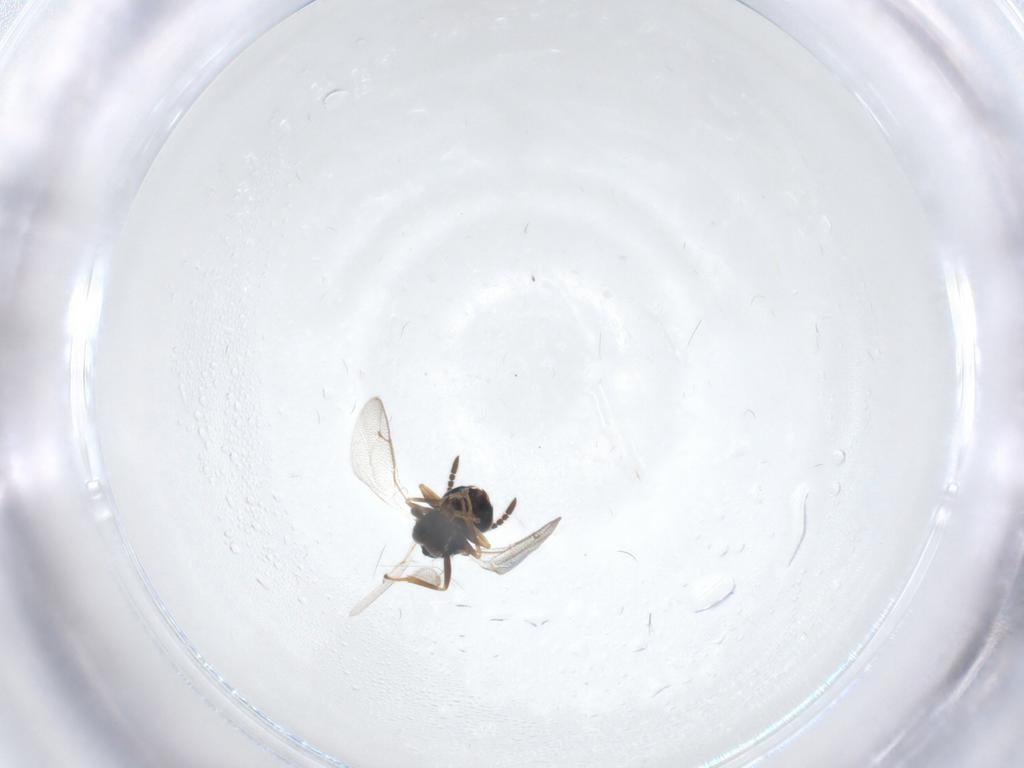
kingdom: Animalia
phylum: Arthropoda
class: Insecta
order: Hymenoptera
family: Pteromalidae
